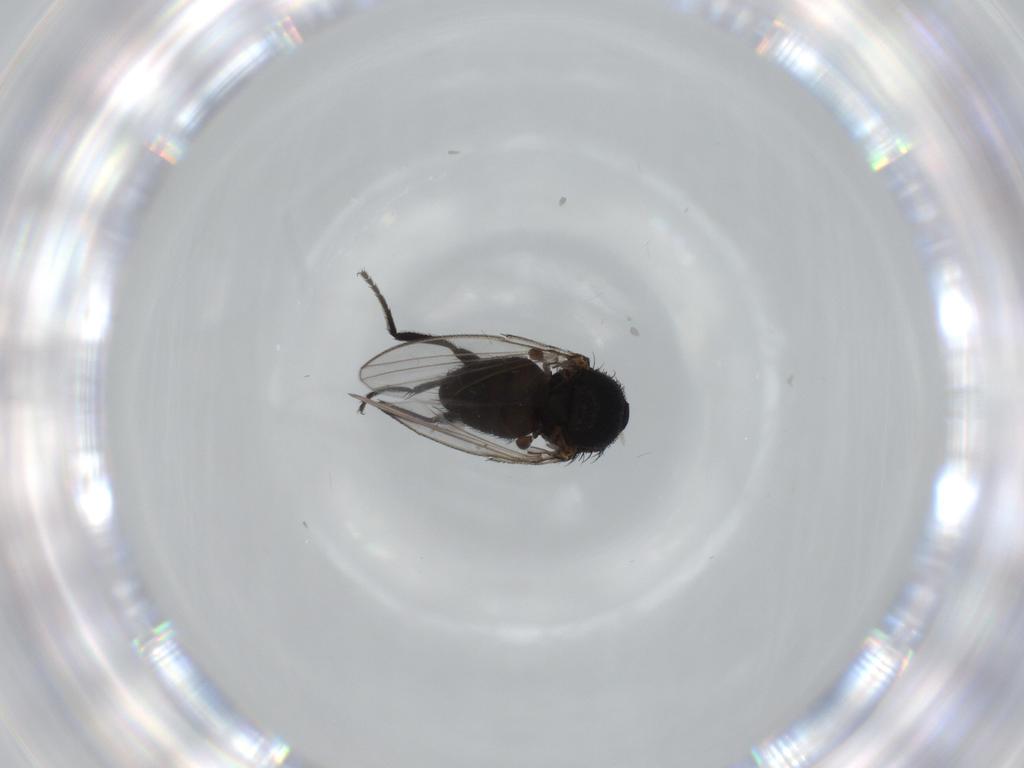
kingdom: Animalia
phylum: Arthropoda
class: Insecta
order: Diptera
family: Milichiidae
